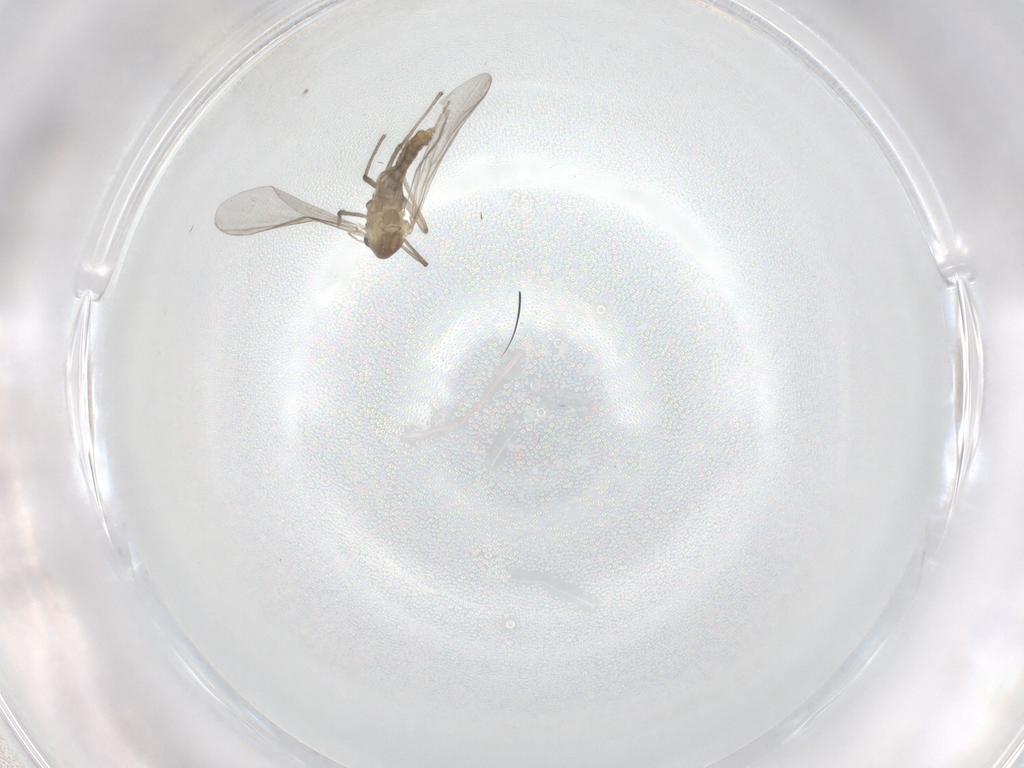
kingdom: Animalia
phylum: Arthropoda
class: Insecta
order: Diptera
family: Chironomidae
